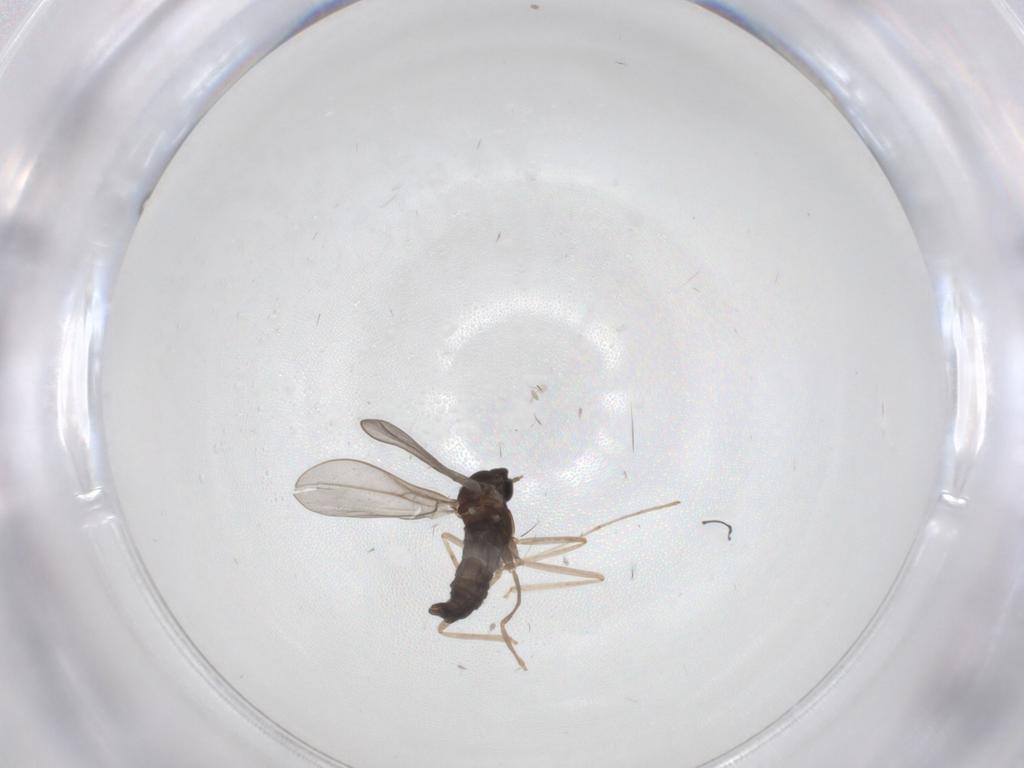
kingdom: Animalia
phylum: Arthropoda
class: Insecta
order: Diptera
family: Cecidomyiidae
